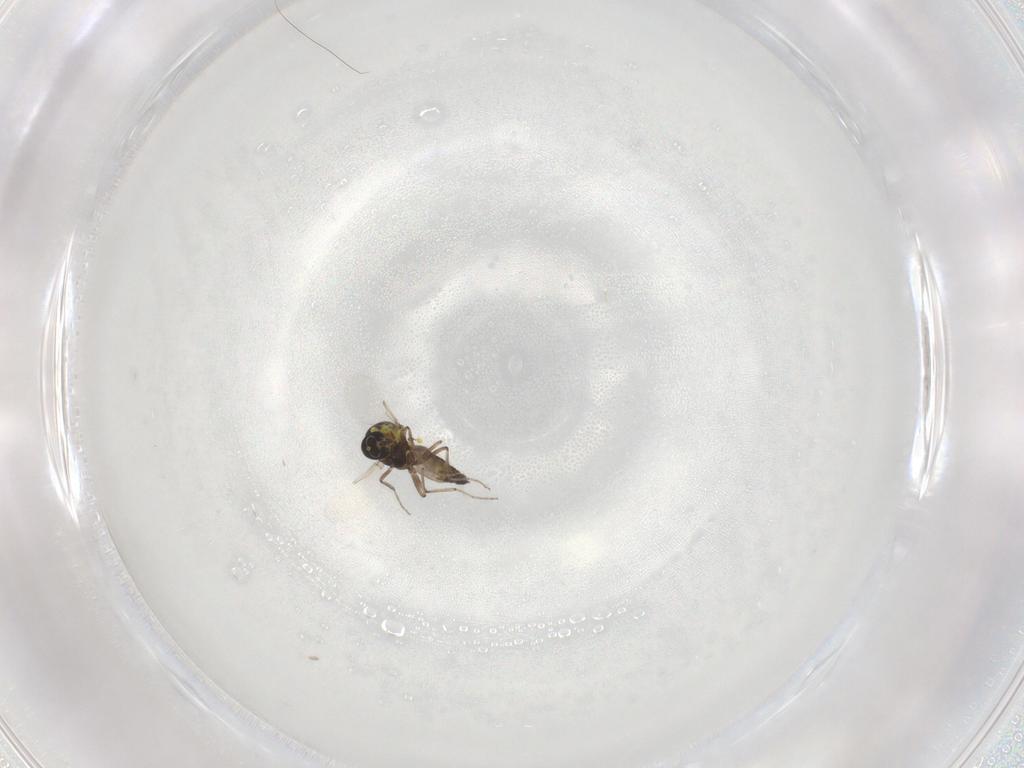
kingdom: Animalia
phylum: Arthropoda
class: Insecta
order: Diptera
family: Ceratopogonidae
